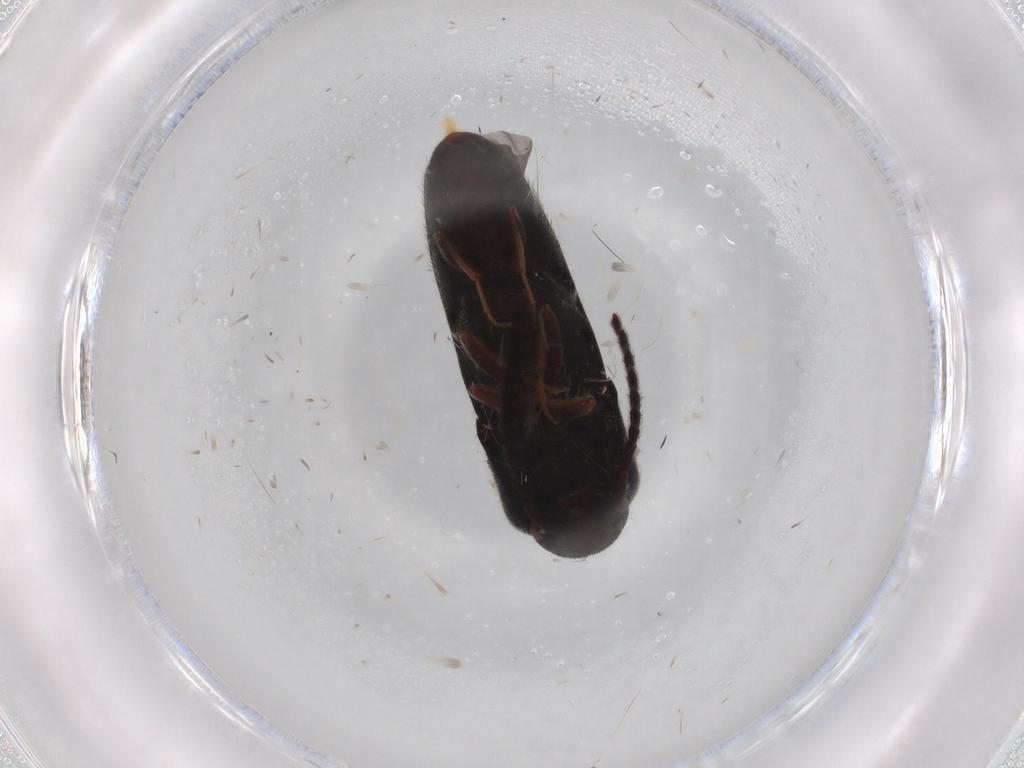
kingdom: Animalia
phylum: Arthropoda
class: Insecta
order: Coleoptera
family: Eucnemidae
